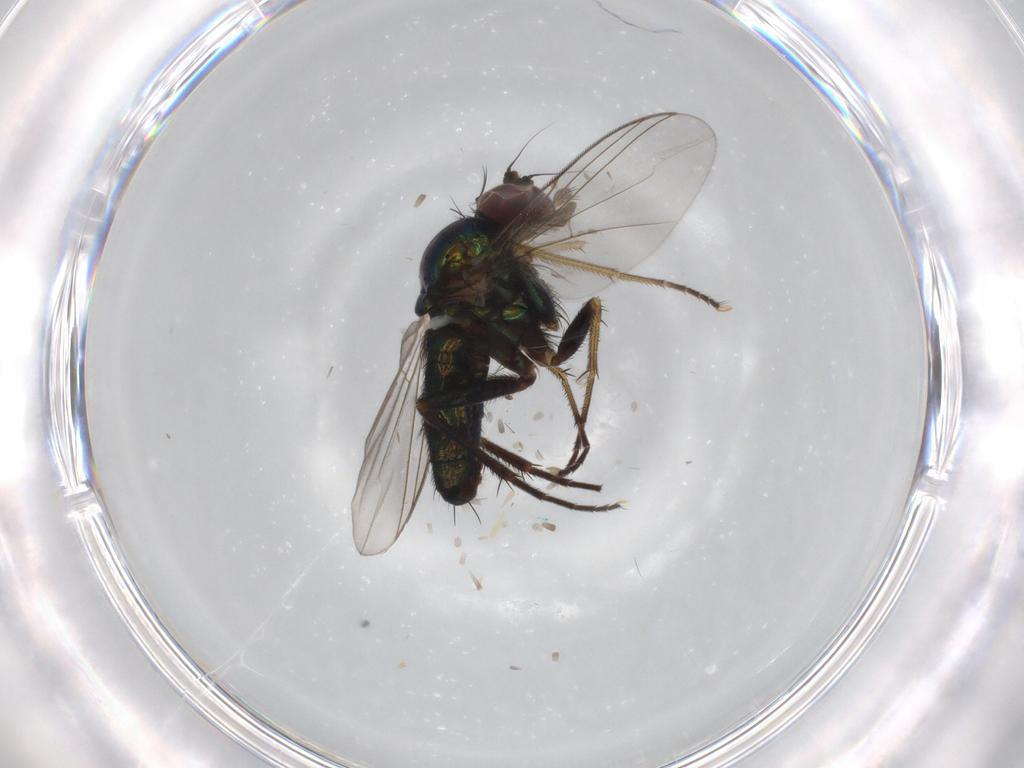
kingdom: Animalia
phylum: Arthropoda
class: Insecta
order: Diptera
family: Dolichopodidae
